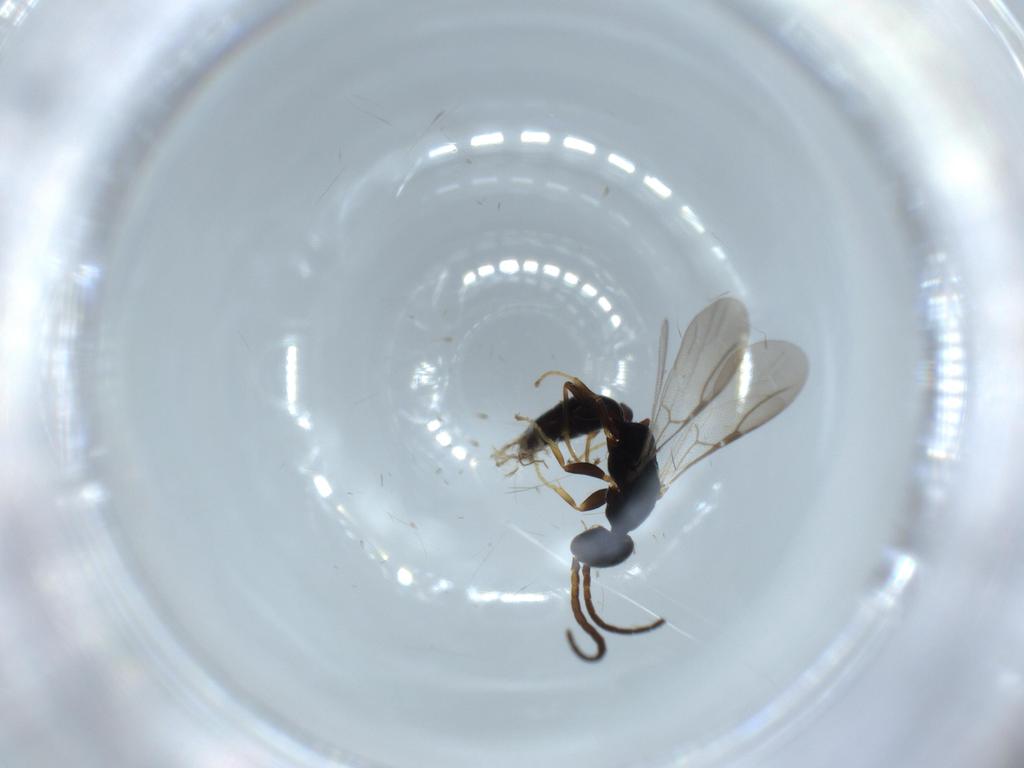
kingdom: Animalia
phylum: Arthropoda
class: Insecta
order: Hymenoptera
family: Bethylidae
